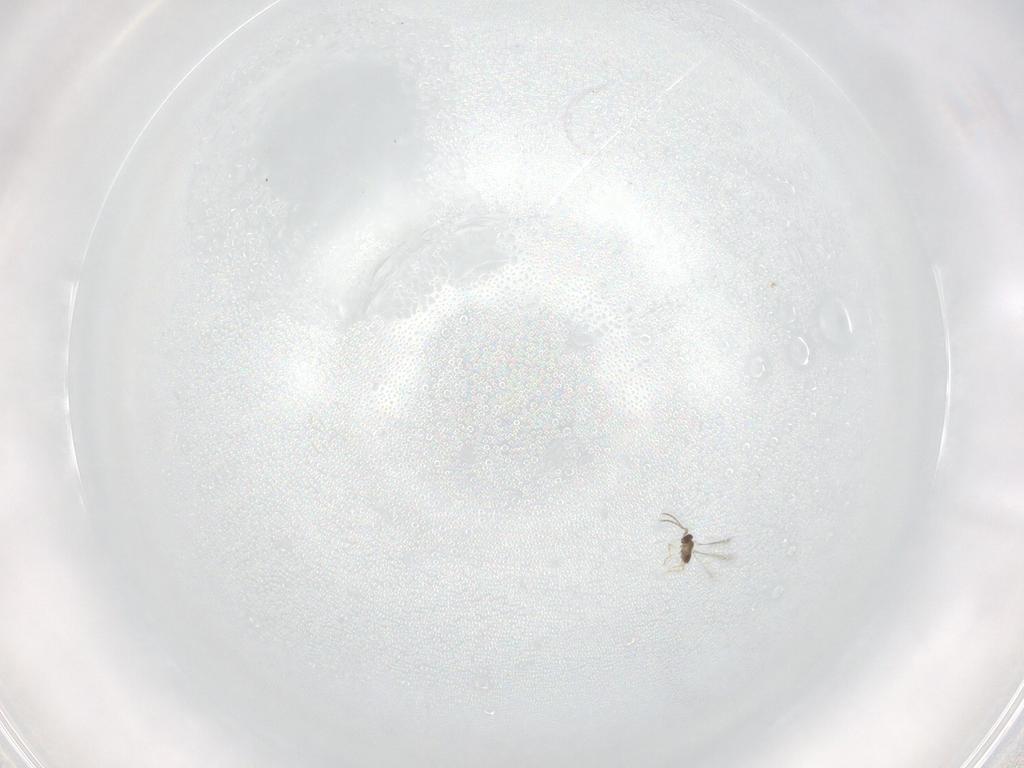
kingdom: Animalia
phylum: Arthropoda
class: Insecta
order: Hymenoptera
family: Mymaridae
